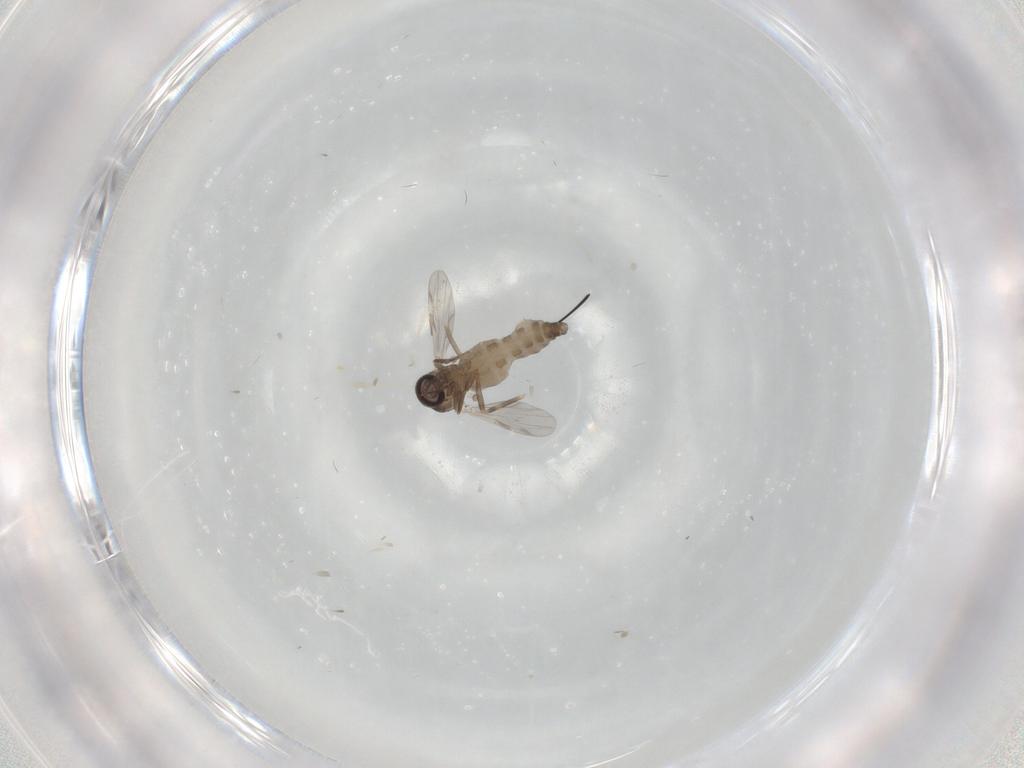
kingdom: Animalia
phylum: Arthropoda
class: Insecta
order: Diptera
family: Ceratopogonidae
